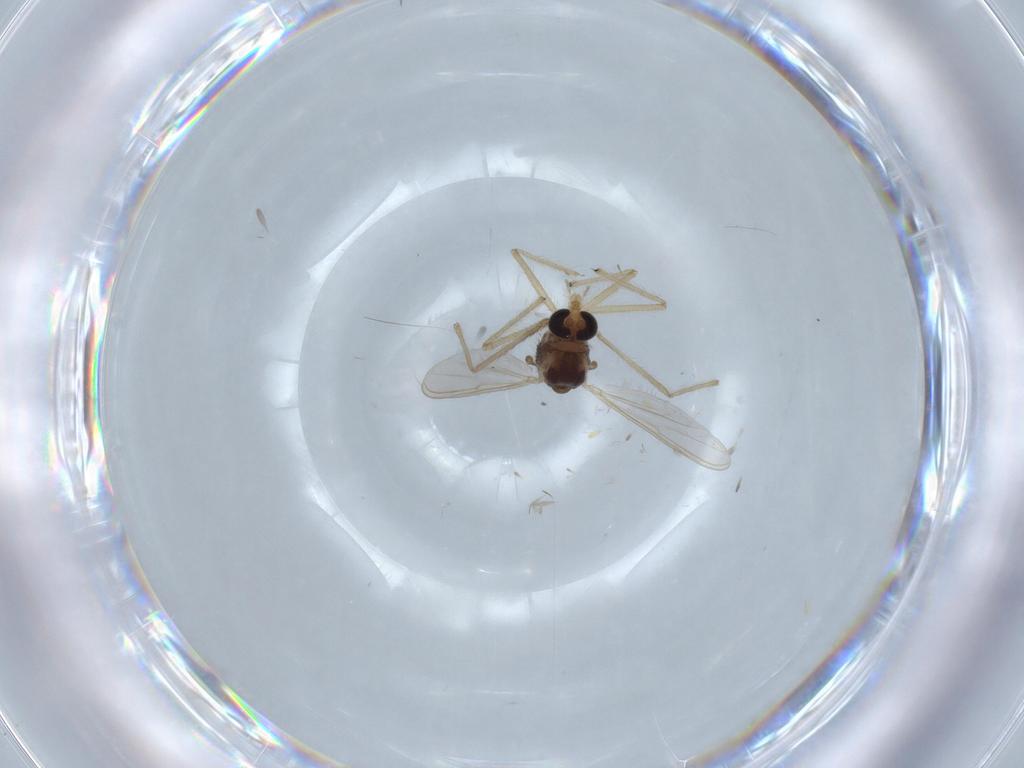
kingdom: Animalia
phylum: Arthropoda
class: Insecta
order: Diptera
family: Chironomidae
